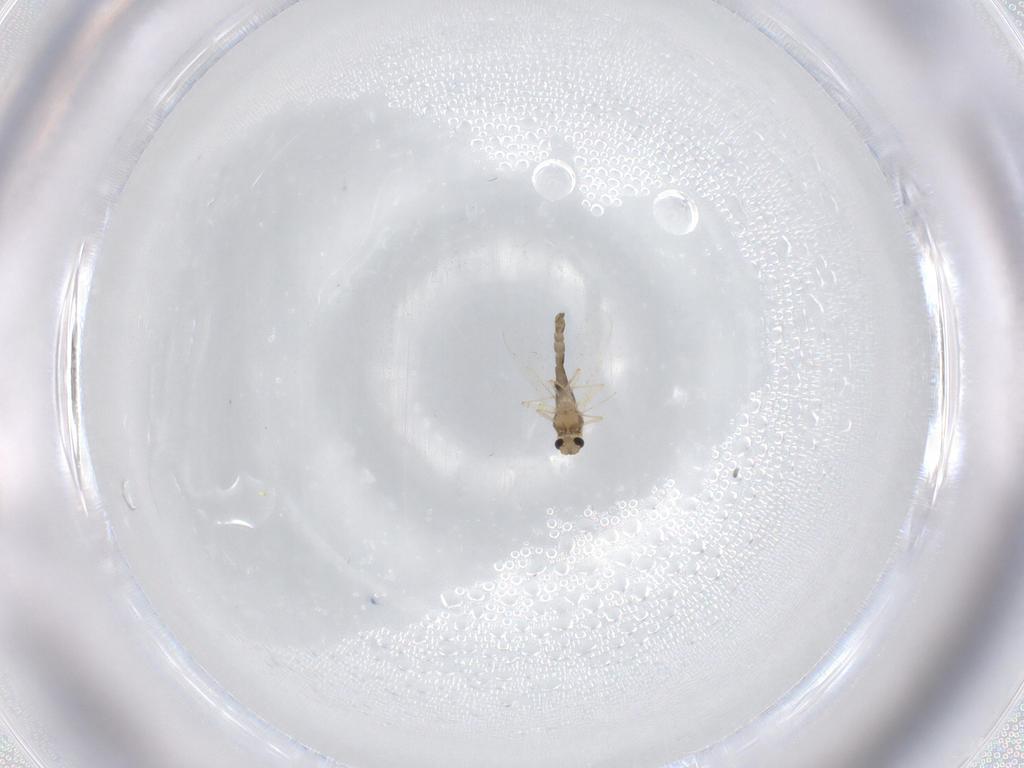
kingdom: Animalia
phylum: Arthropoda
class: Insecta
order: Diptera
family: Chironomidae
